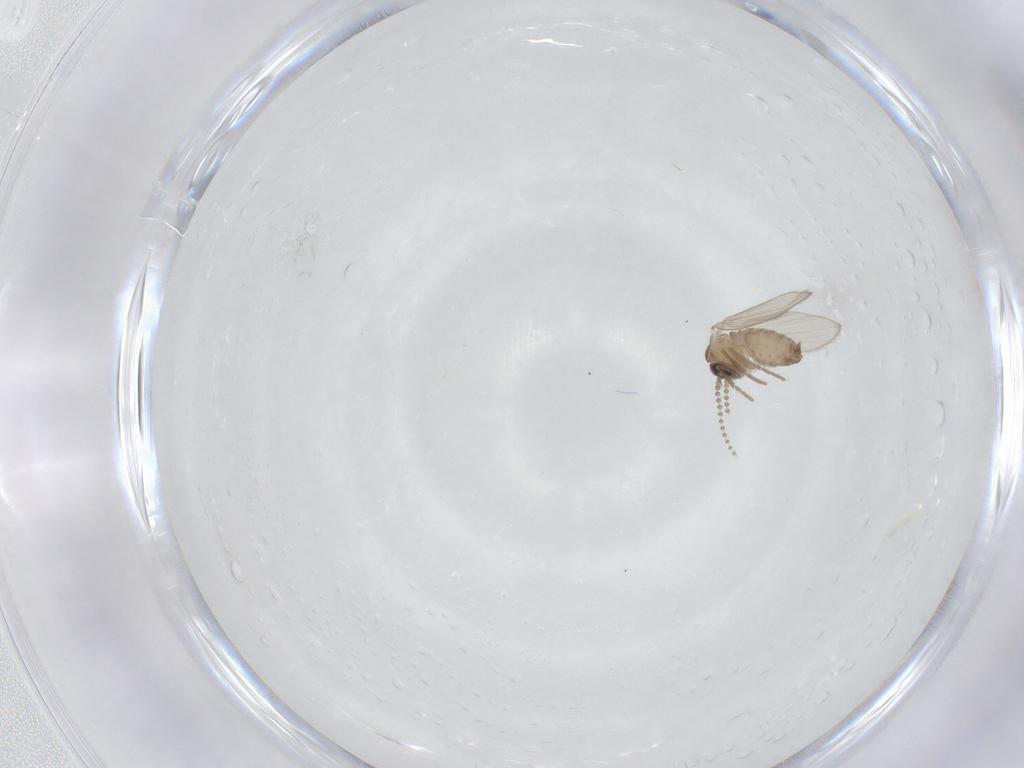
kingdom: Animalia
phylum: Arthropoda
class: Insecta
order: Diptera
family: Psychodidae
